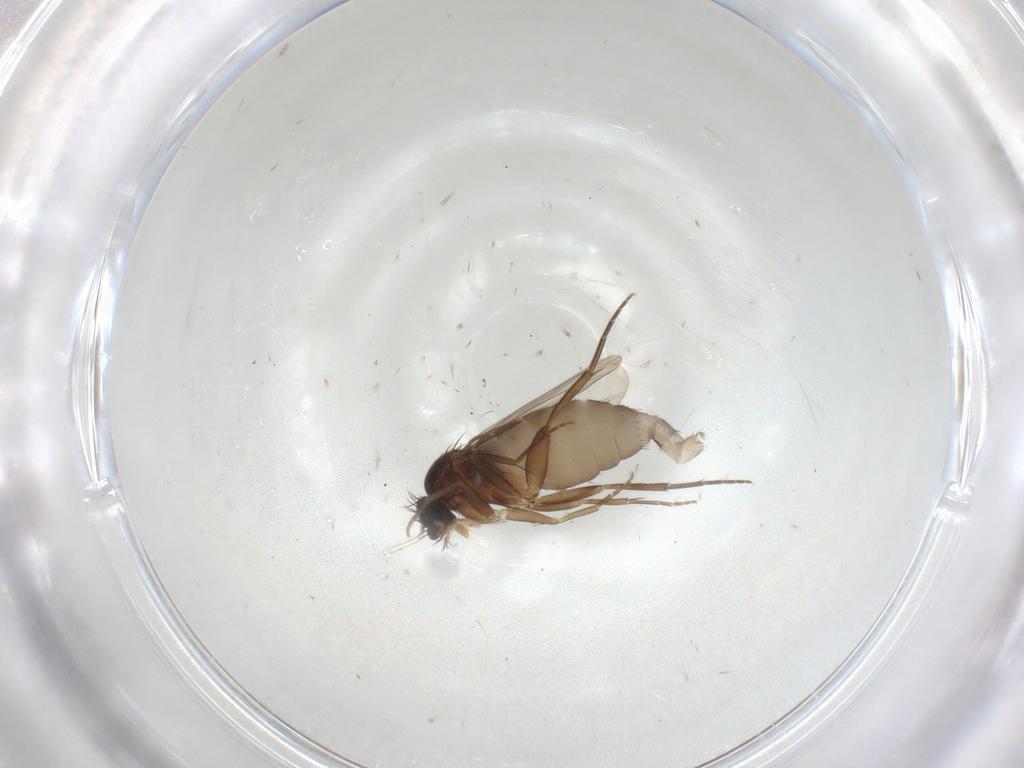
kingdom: Animalia
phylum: Arthropoda
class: Insecta
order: Diptera
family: Phoridae
